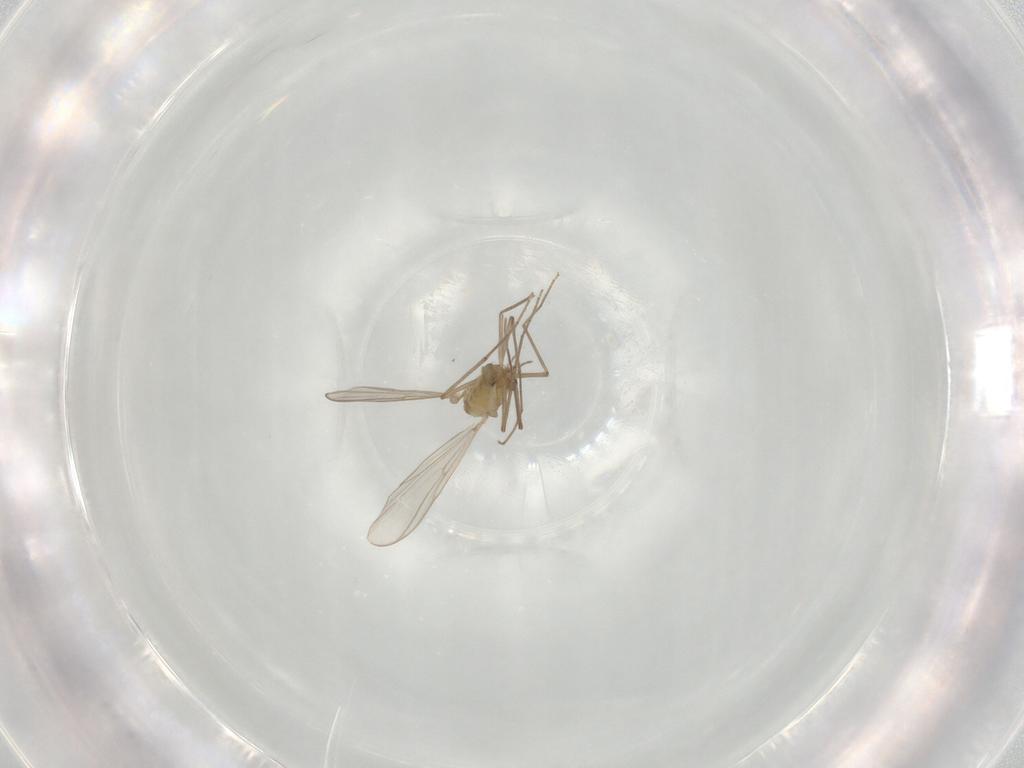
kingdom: Animalia
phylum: Arthropoda
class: Insecta
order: Diptera
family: Chironomidae
